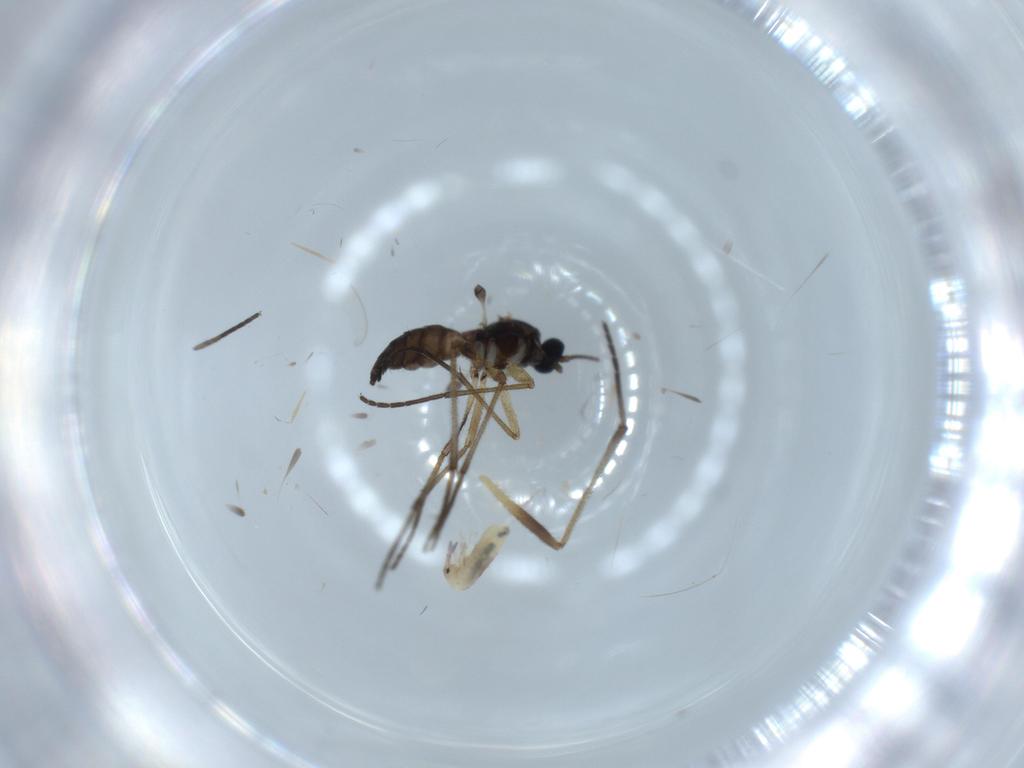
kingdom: Animalia
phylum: Arthropoda
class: Insecta
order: Diptera
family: Sciaridae
